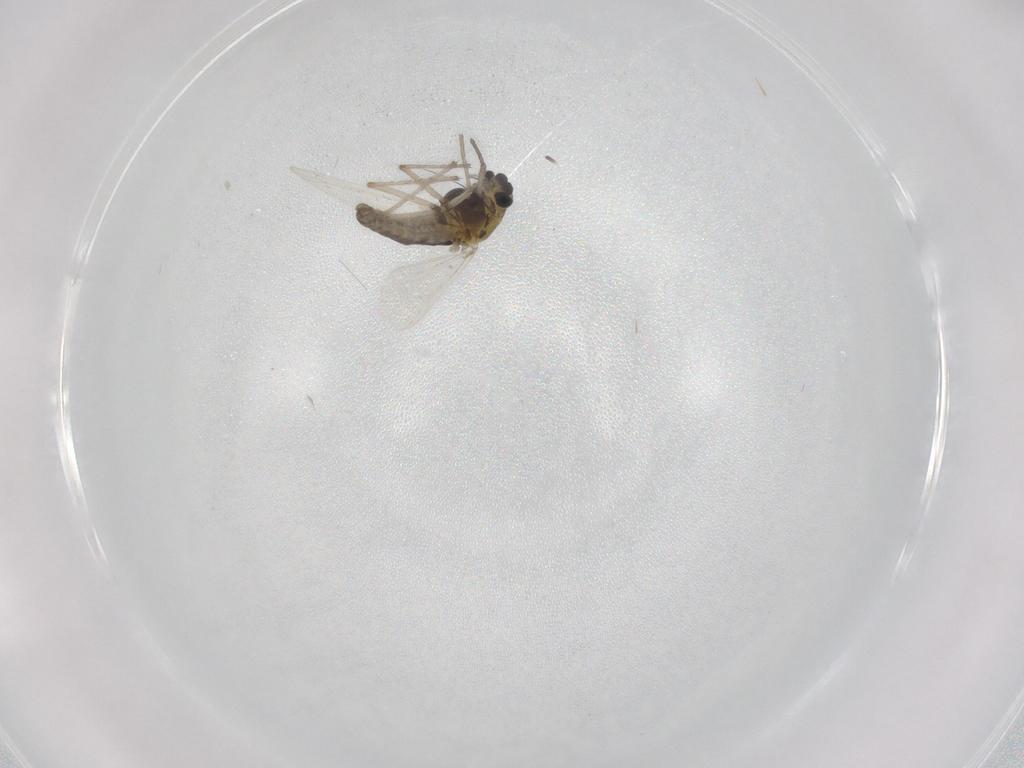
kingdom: Animalia
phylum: Arthropoda
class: Insecta
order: Diptera
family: Chironomidae
